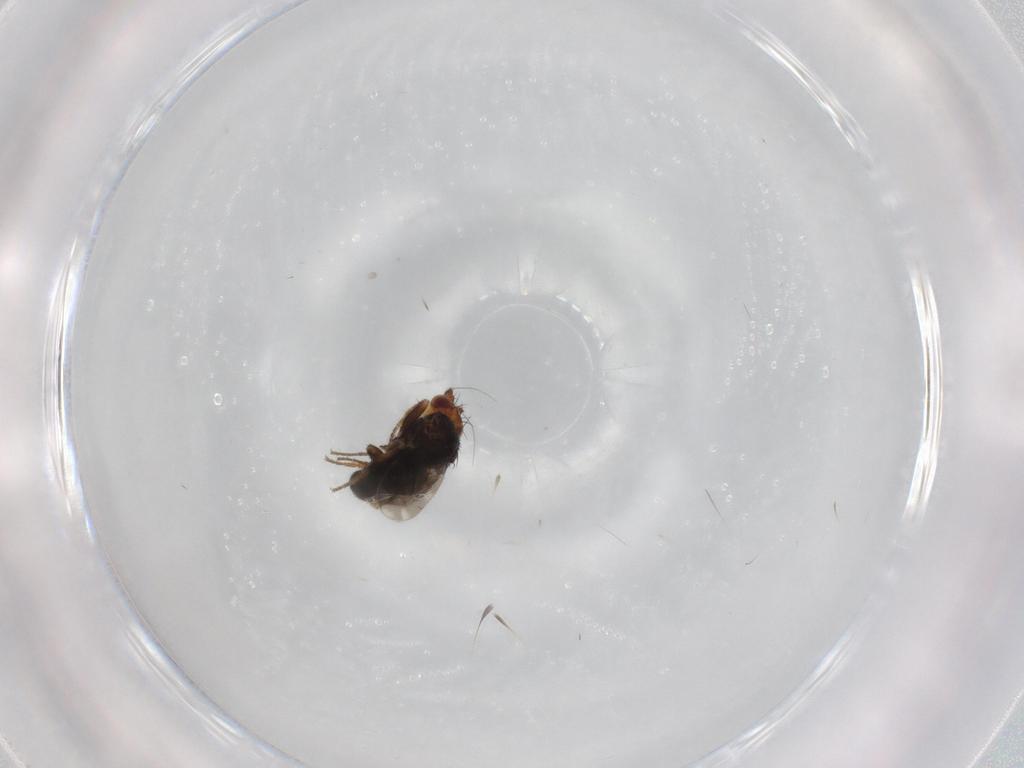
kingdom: Animalia
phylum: Arthropoda
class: Insecta
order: Diptera
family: Sphaeroceridae
